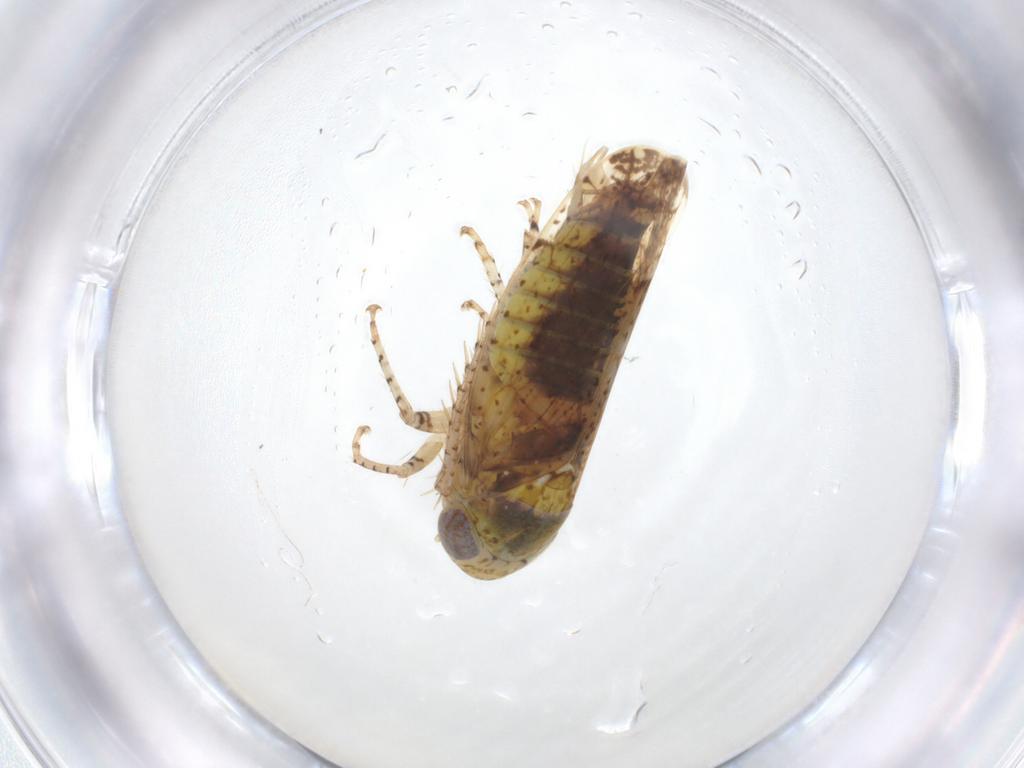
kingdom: Animalia
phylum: Arthropoda
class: Insecta
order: Hemiptera
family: Cicadellidae
